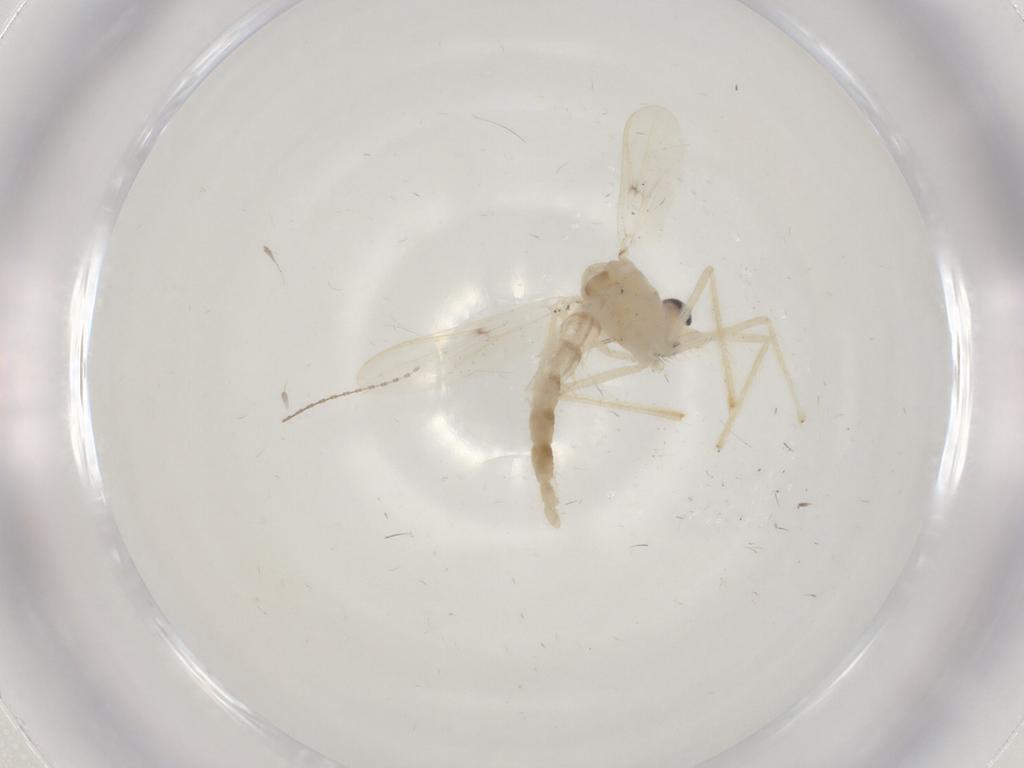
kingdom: Animalia
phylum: Arthropoda
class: Insecta
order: Diptera
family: Chironomidae
